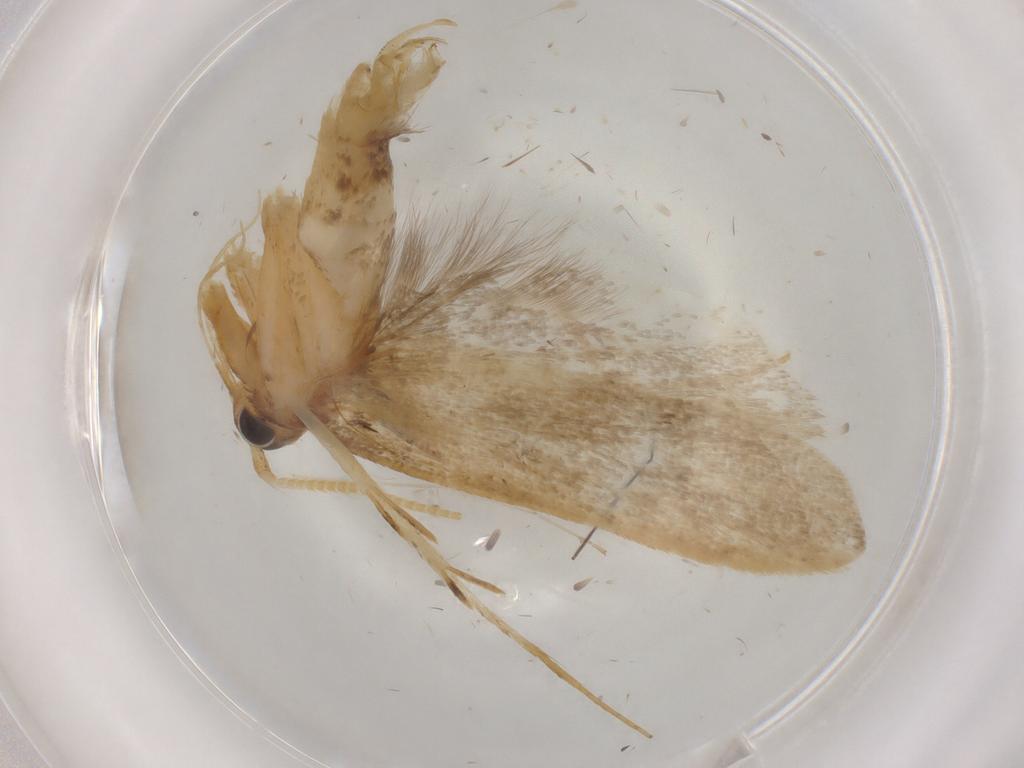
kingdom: Animalia
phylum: Arthropoda
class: Insecta
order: Lepidoptera
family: Lecithoceridae
